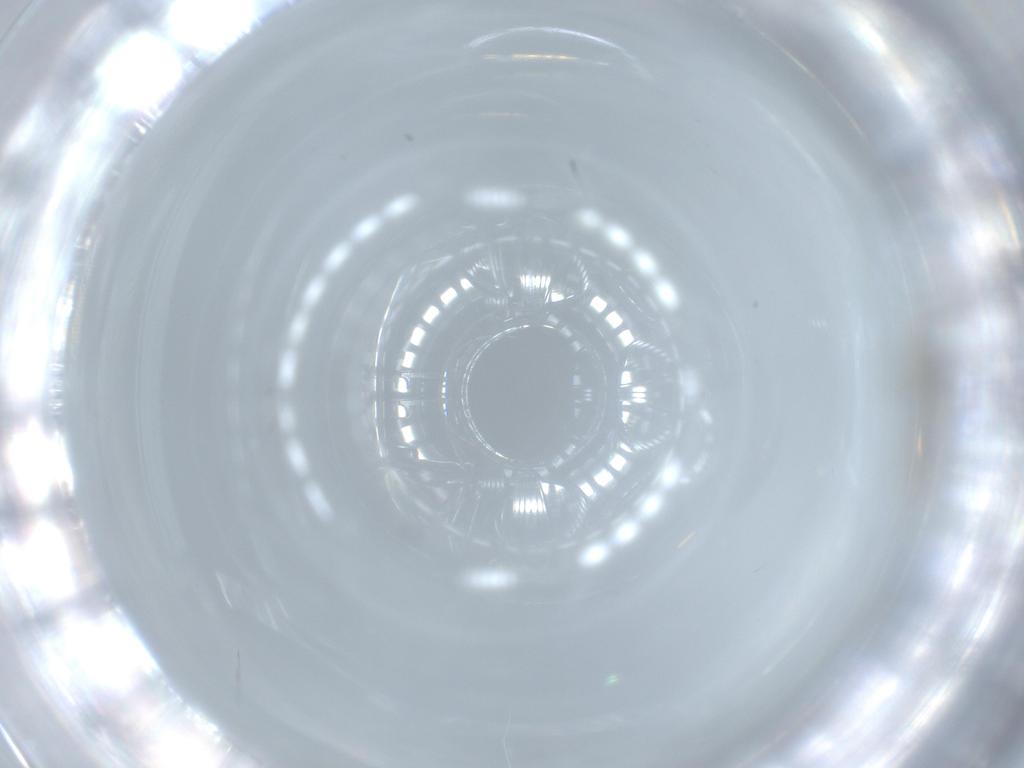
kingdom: Animalia
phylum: Arthropoda
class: Insecta
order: Diptera
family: Cecidomyiidae
